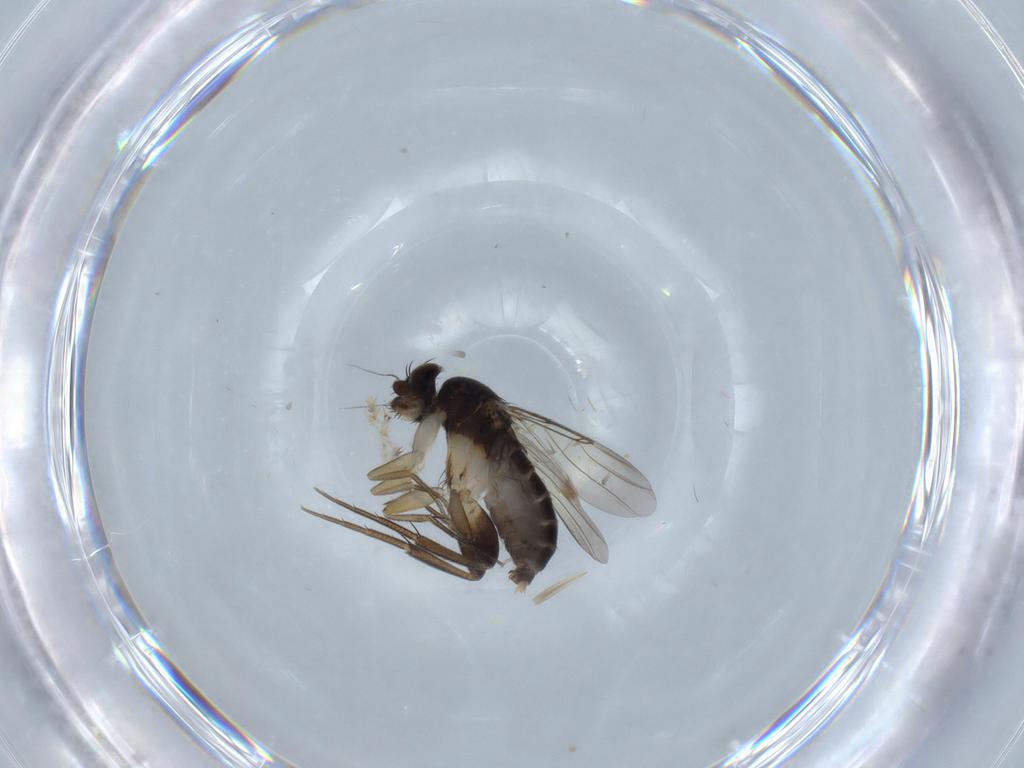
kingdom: Animalia
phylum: Arthropoda
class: Insecta
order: Diptera
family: Phoridae
